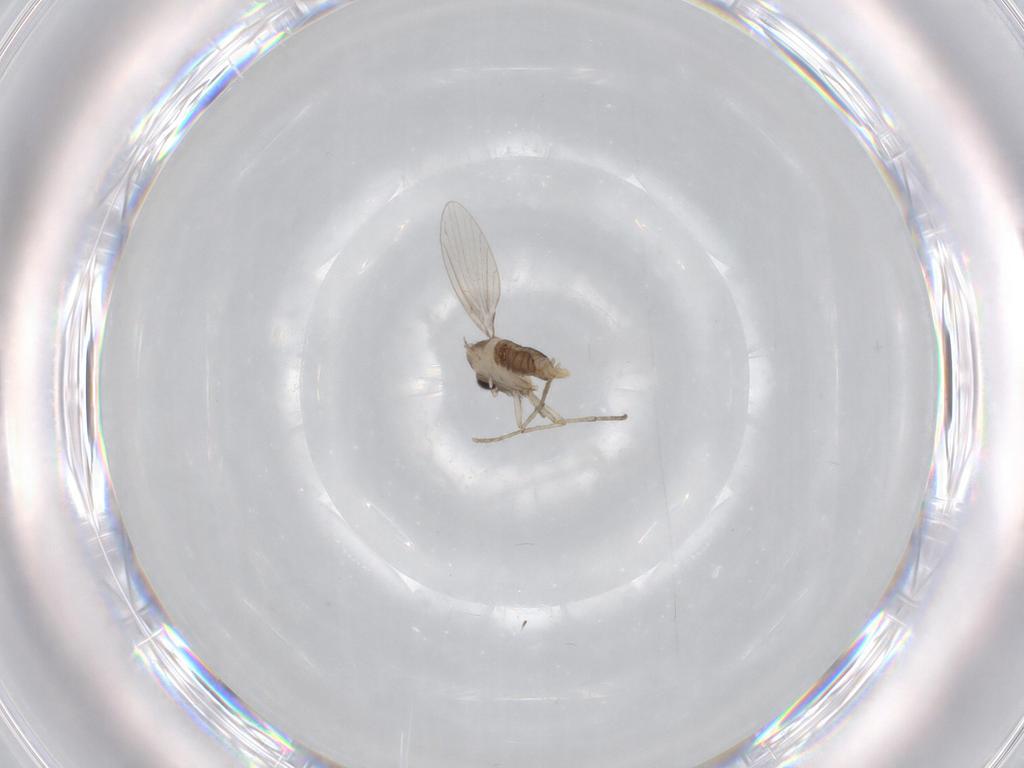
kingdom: Animalia
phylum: Arthropoda
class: Insecta
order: Diptera
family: Psychodidae
